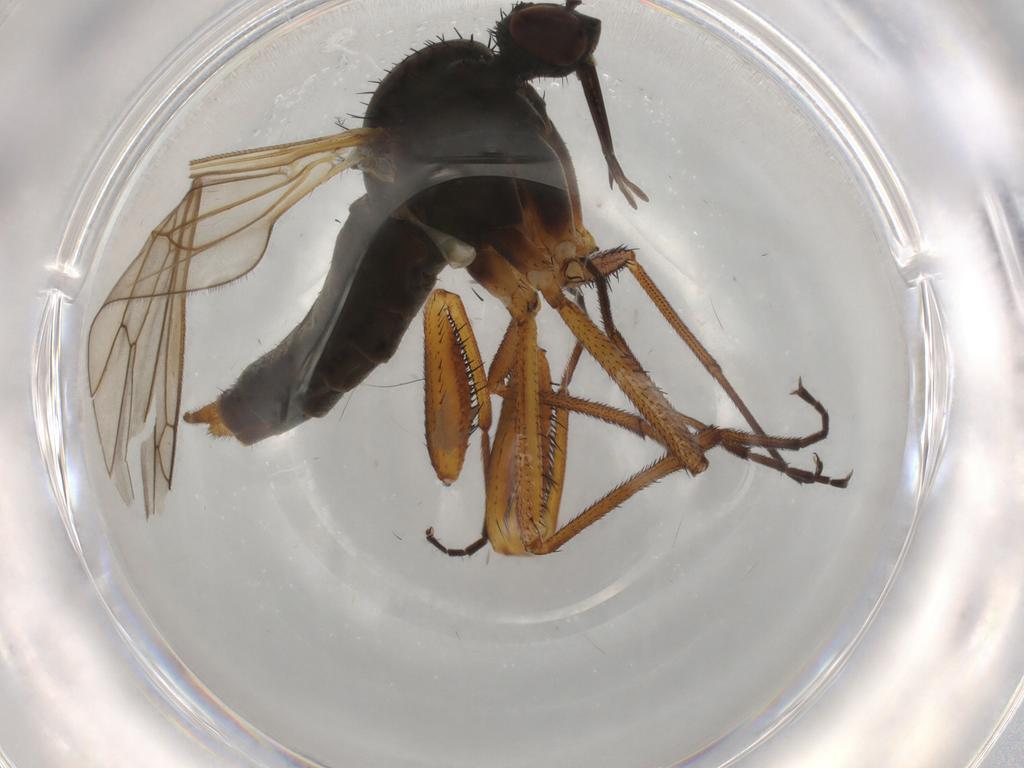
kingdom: Animalia
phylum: Arthropoda
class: Insecta
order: Diptera
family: Empididae
